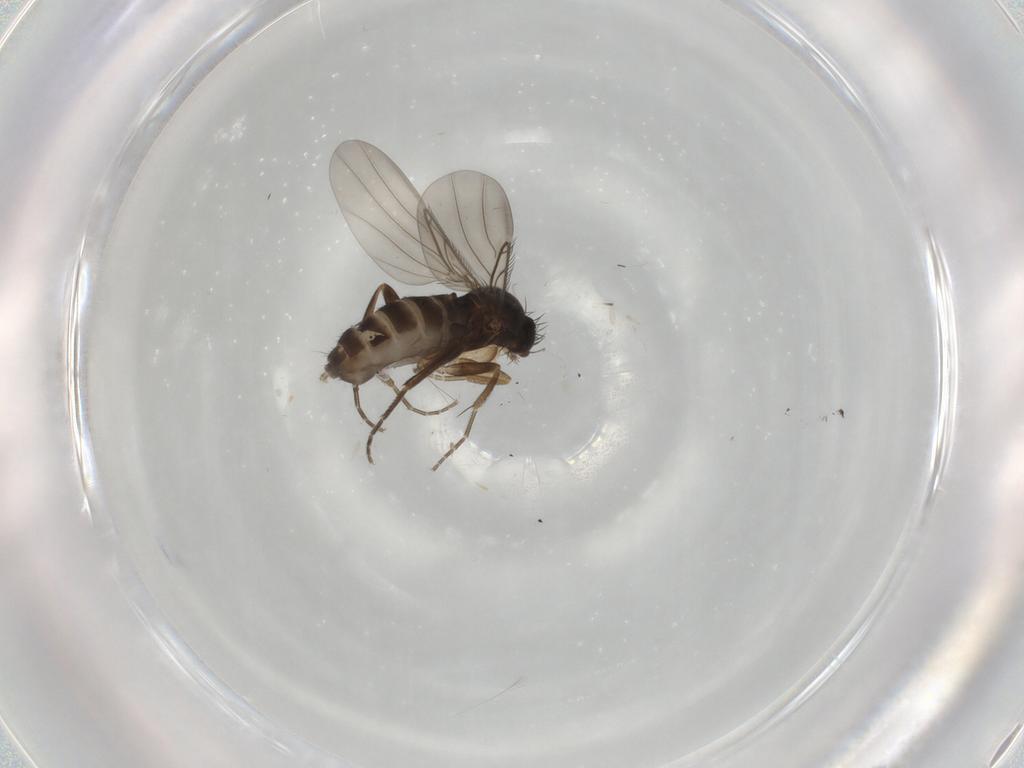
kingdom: Animalia
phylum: Arthropoda
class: Insecta
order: Diptera
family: Phoridae
